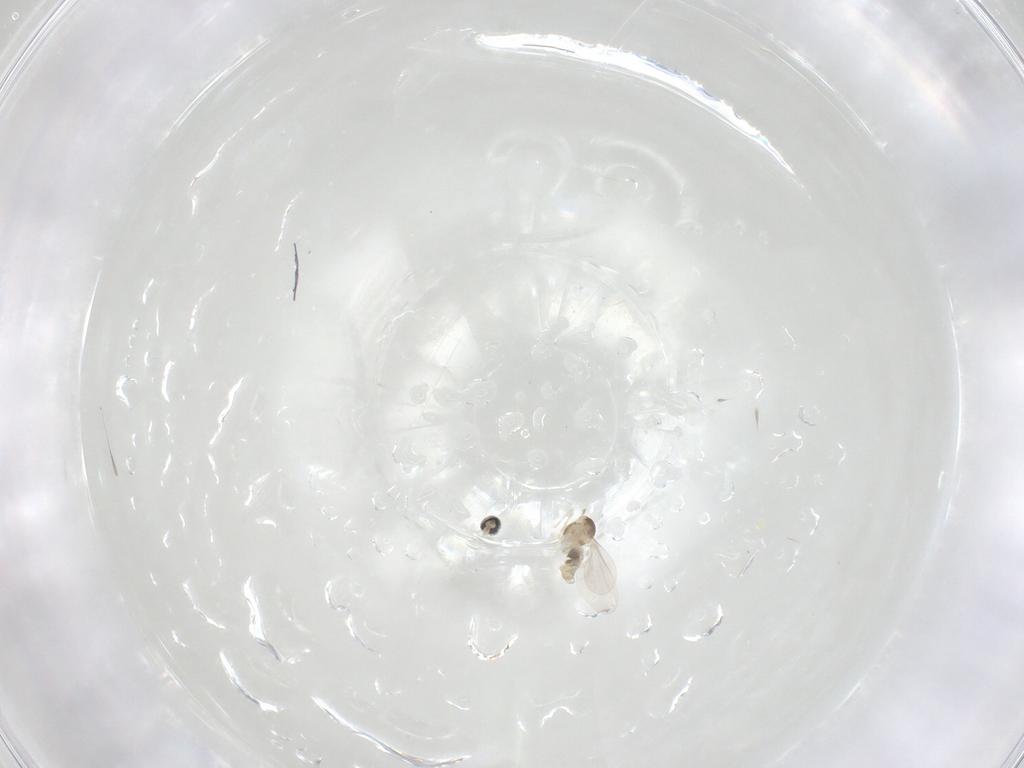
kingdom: Animalia
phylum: Arthropoda
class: Insecta
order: Diptera
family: Cecidomyiidae
